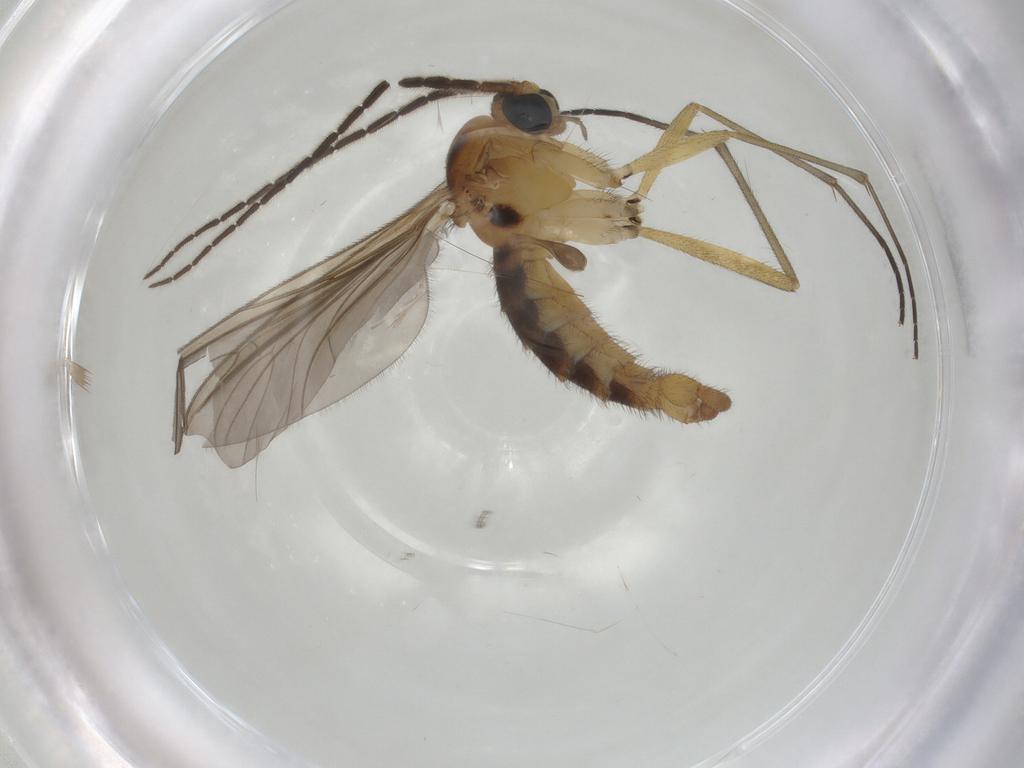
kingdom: Animalia
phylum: Arthropoda
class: Insecta
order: Diptera
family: Sciaridae
